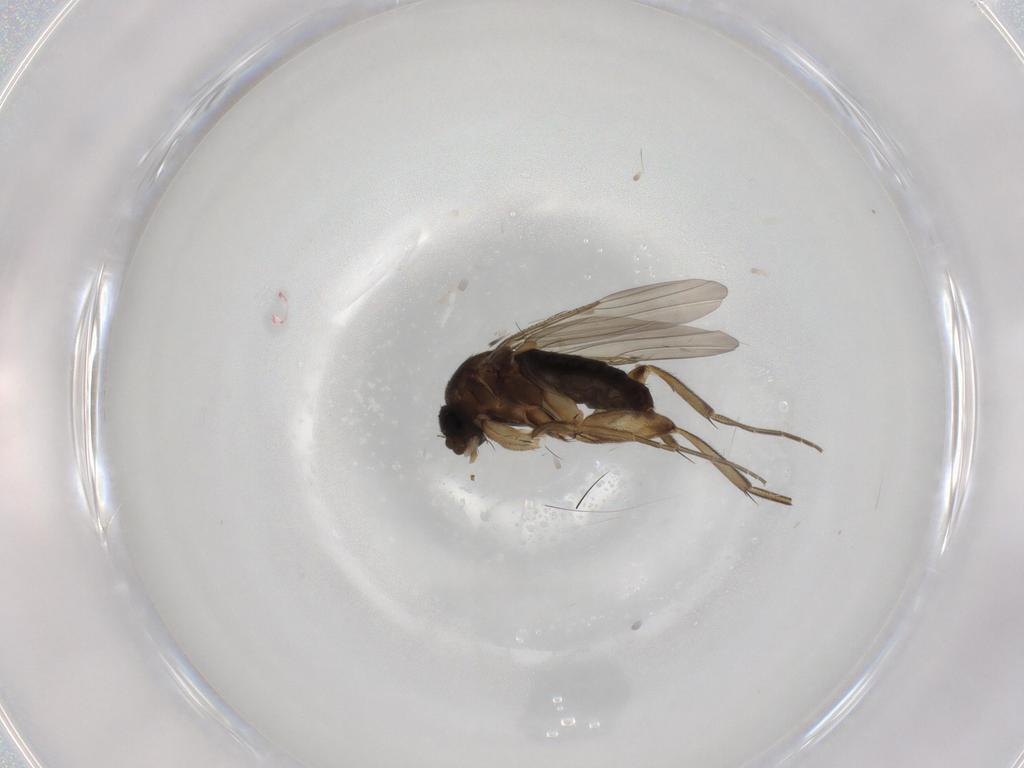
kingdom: Animalia
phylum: Arthropoda
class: Insecta
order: Diptera
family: Phoridae
